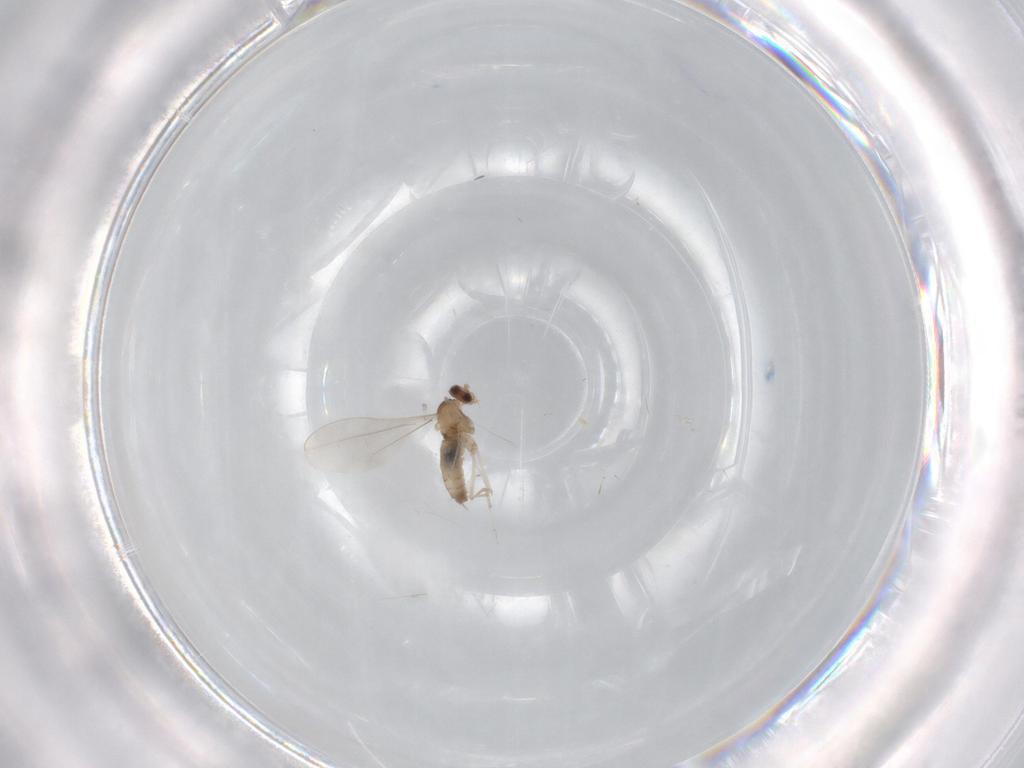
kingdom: Animalia
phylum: Arthropoda
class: Insecta
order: Diptera
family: Cecidomyiidae
